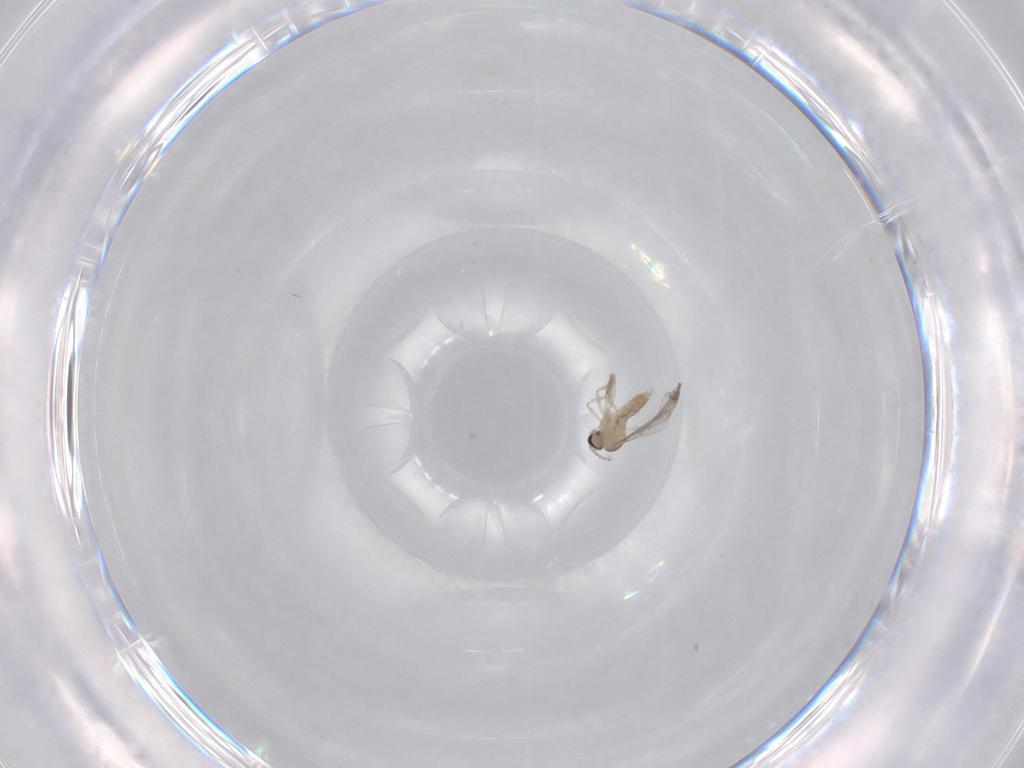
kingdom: Animalia
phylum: Arthropoda
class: Insecta
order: Diptera
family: Cecidomyiidae
